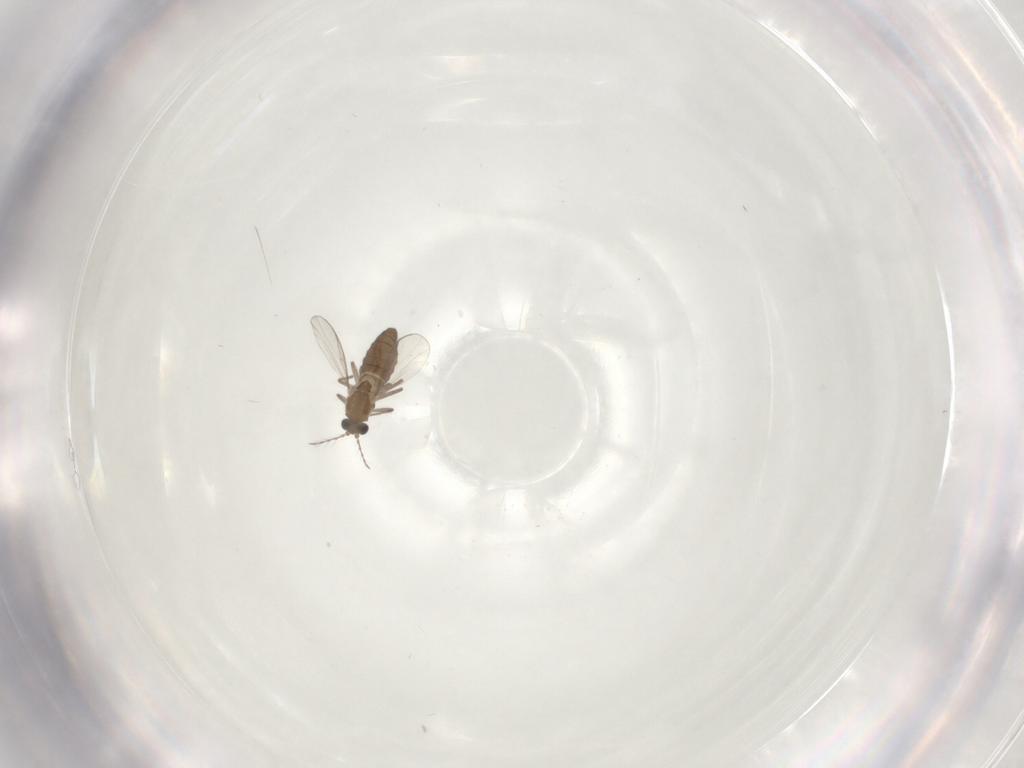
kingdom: Animalia
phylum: Arthropoda
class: Insecta
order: Diptera
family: Chironomidae
